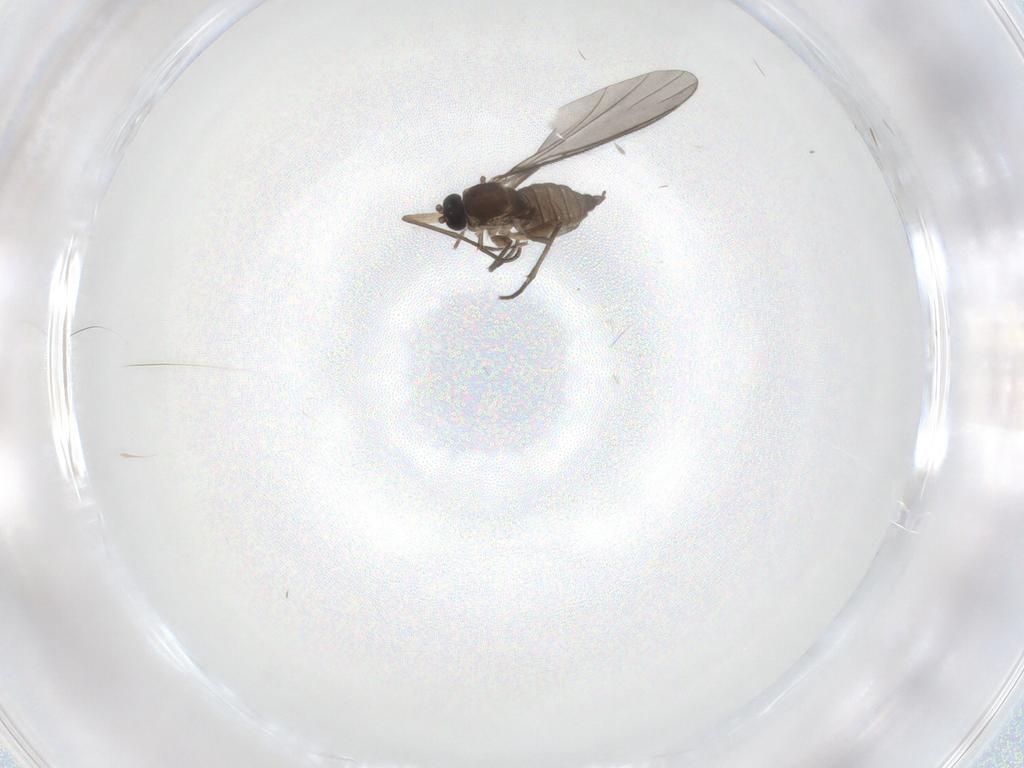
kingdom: Animalia
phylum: Arthropoda
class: Insecta
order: Diptera
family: Sciaridae
